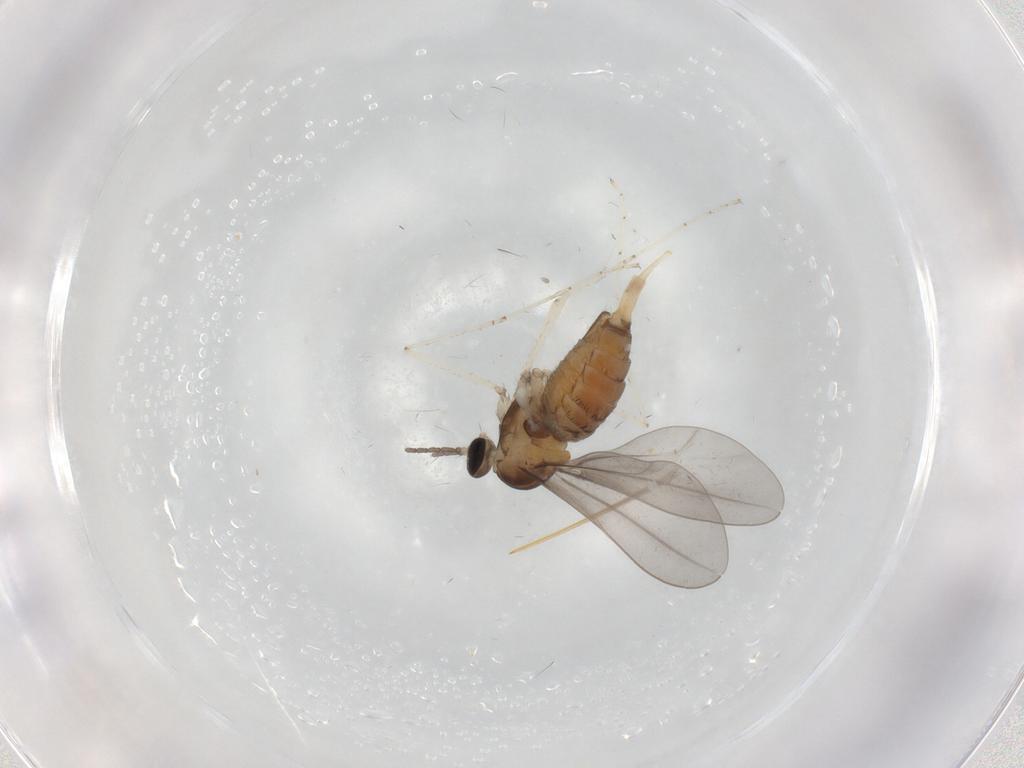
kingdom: Animalia
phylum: Arthropoda
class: Insecta
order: Diptera
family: Cecidomyiidae
